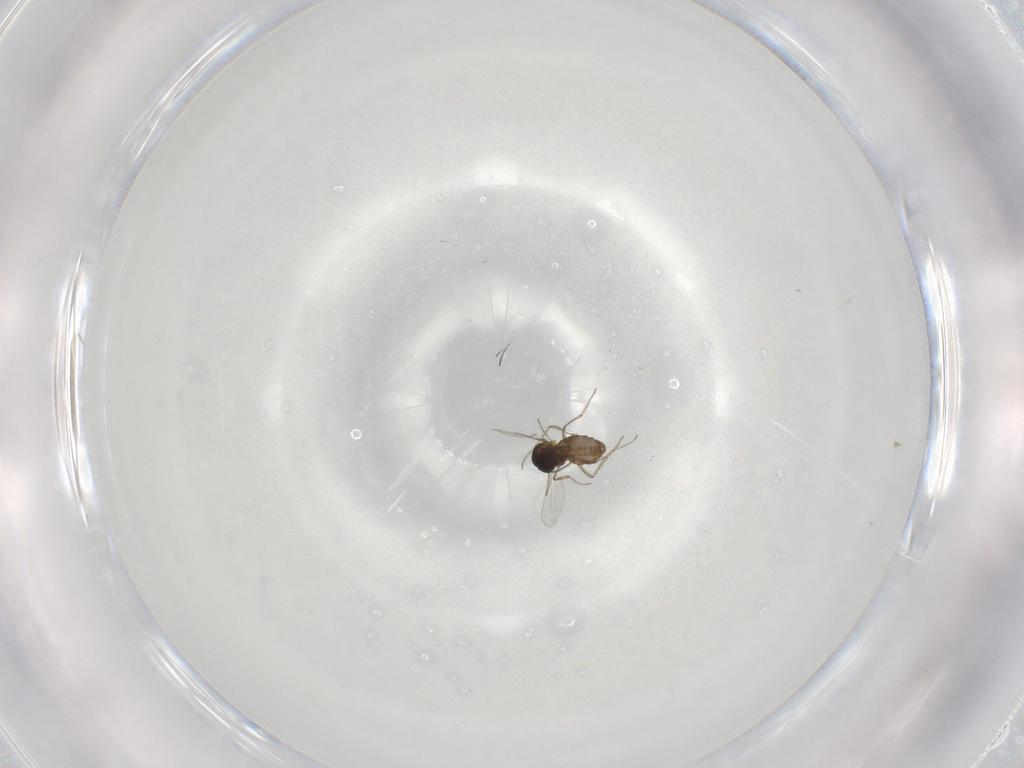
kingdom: Animalia
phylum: Arthropoda
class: Insecta
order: Diptera
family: Ceratopogonidae
